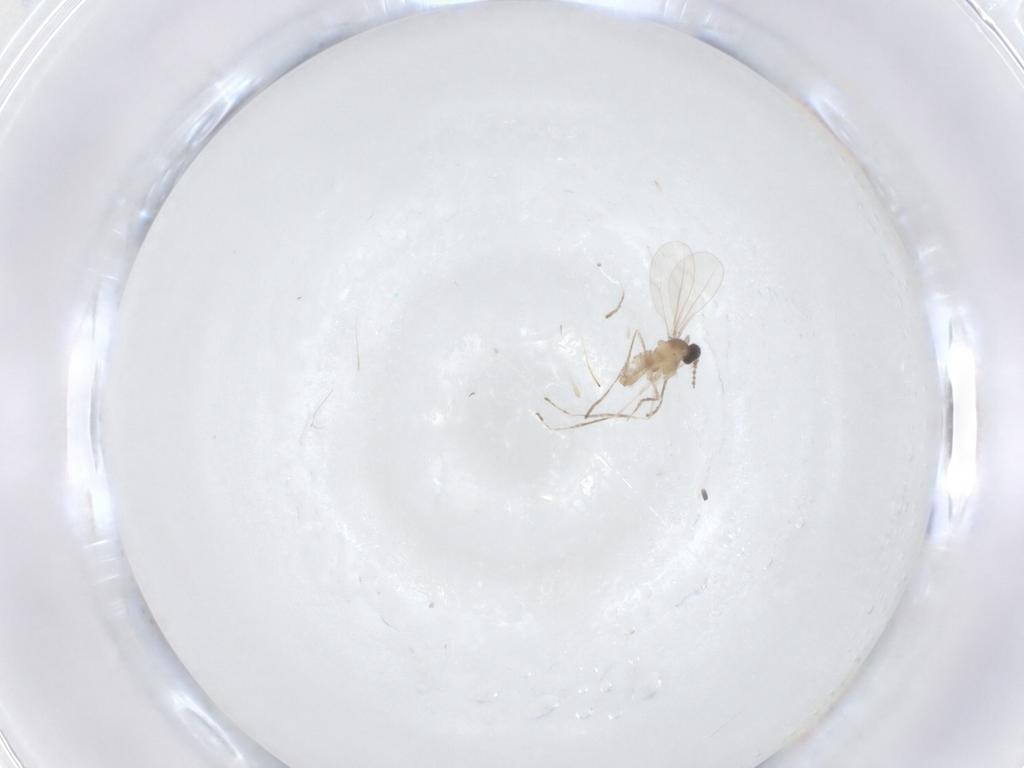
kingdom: Animalia
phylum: Arthropoda
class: Insecta
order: Diptera
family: Cecidomyiidae
